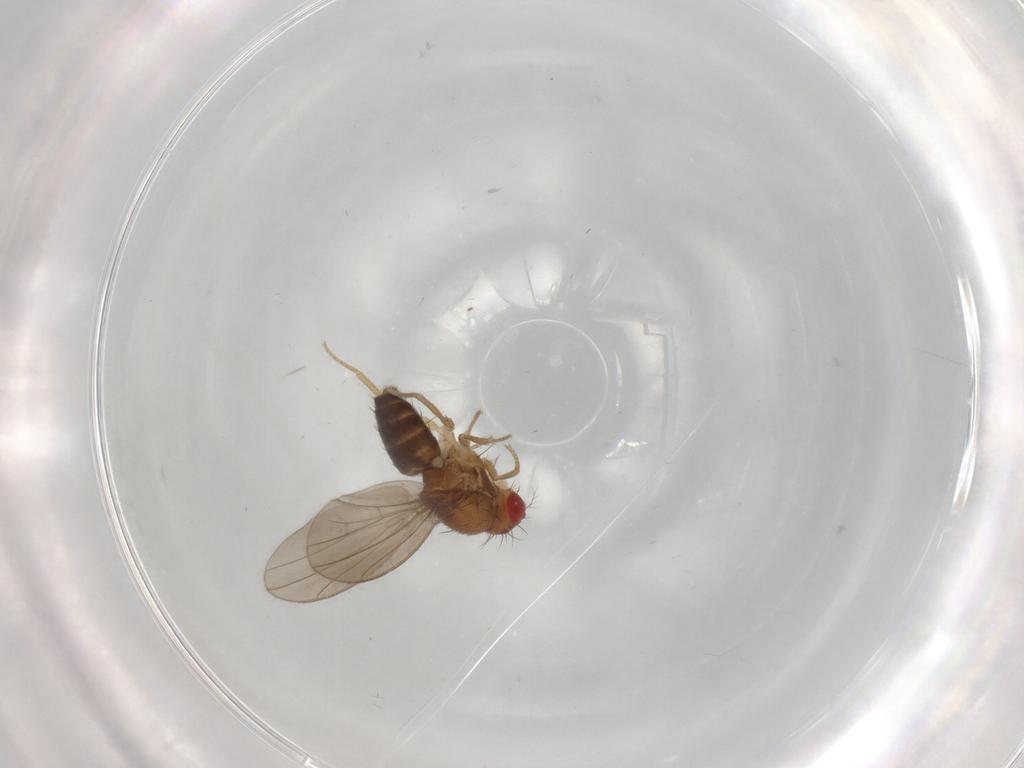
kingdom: Animalia
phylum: Arthropoda
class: Insecta
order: Diptera
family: Drosophilidae
